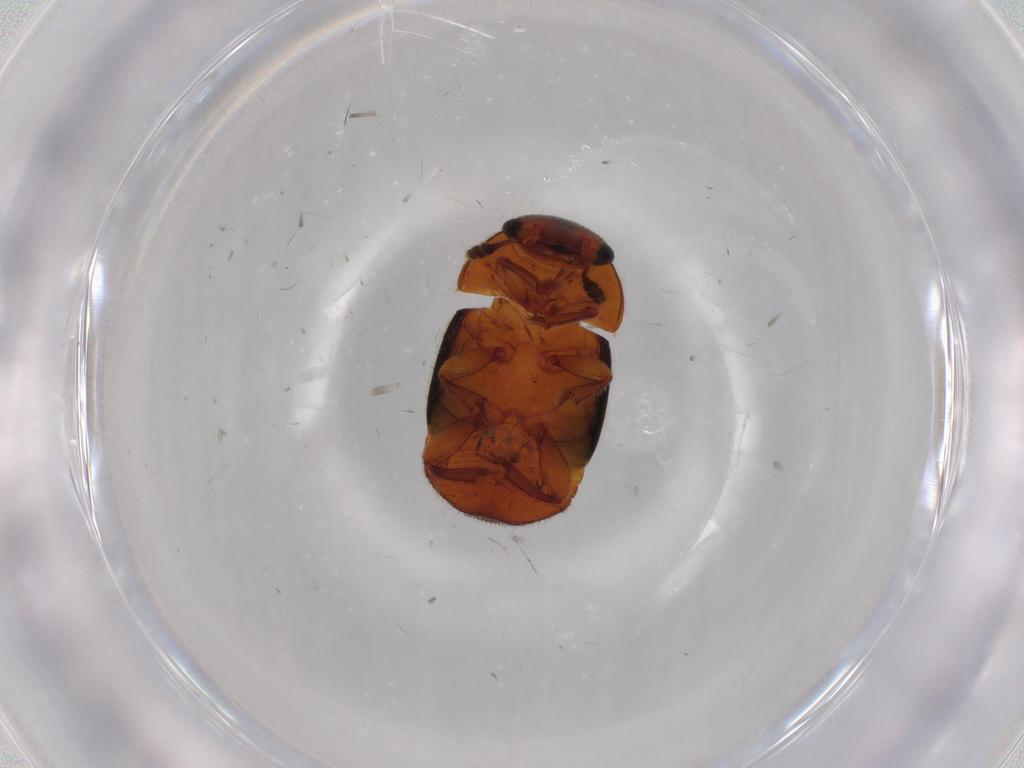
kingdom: Animalia
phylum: Arthropoda
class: Insecta
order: Coleoptera
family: Nitidulidae
